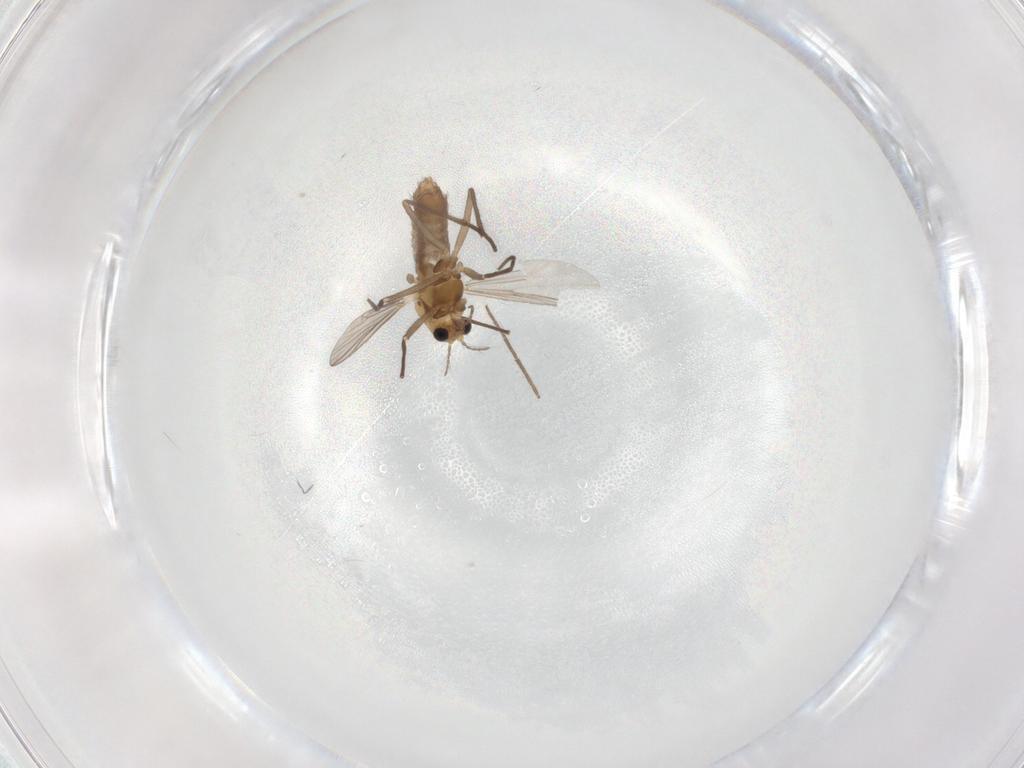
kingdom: Animalia
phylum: Arthropoda
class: Insecta
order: Diptera
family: Chironomidae
